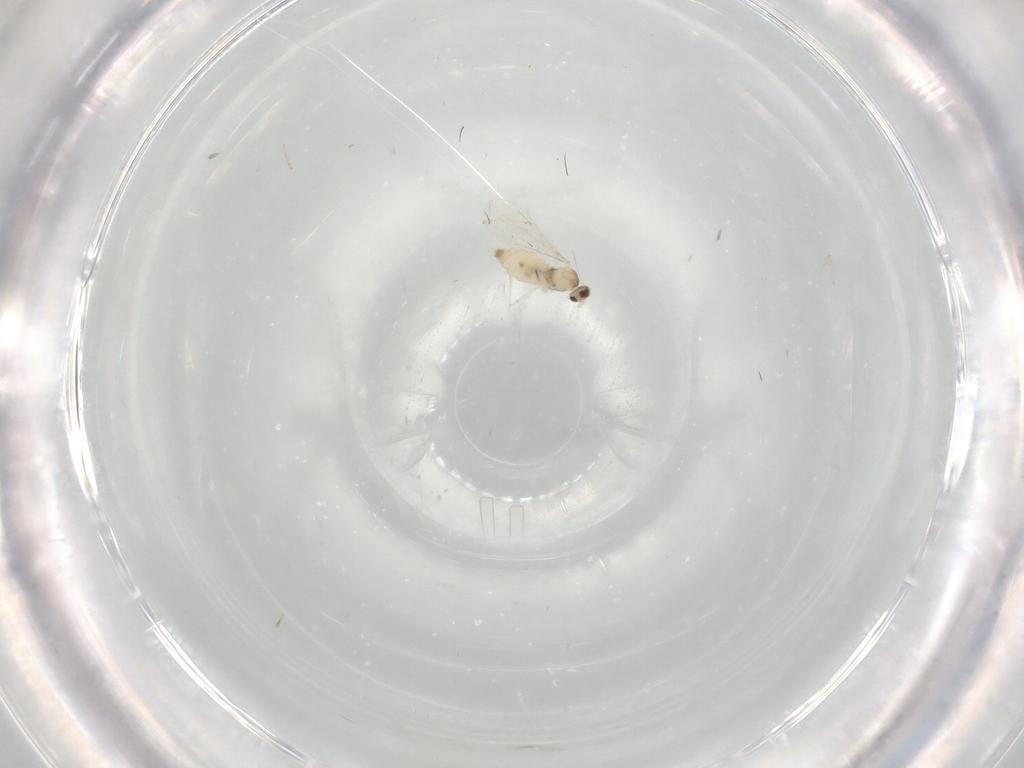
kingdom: Animalia
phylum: Arthropoda
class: Insecta
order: Diptera
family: Cecidomyiidae
